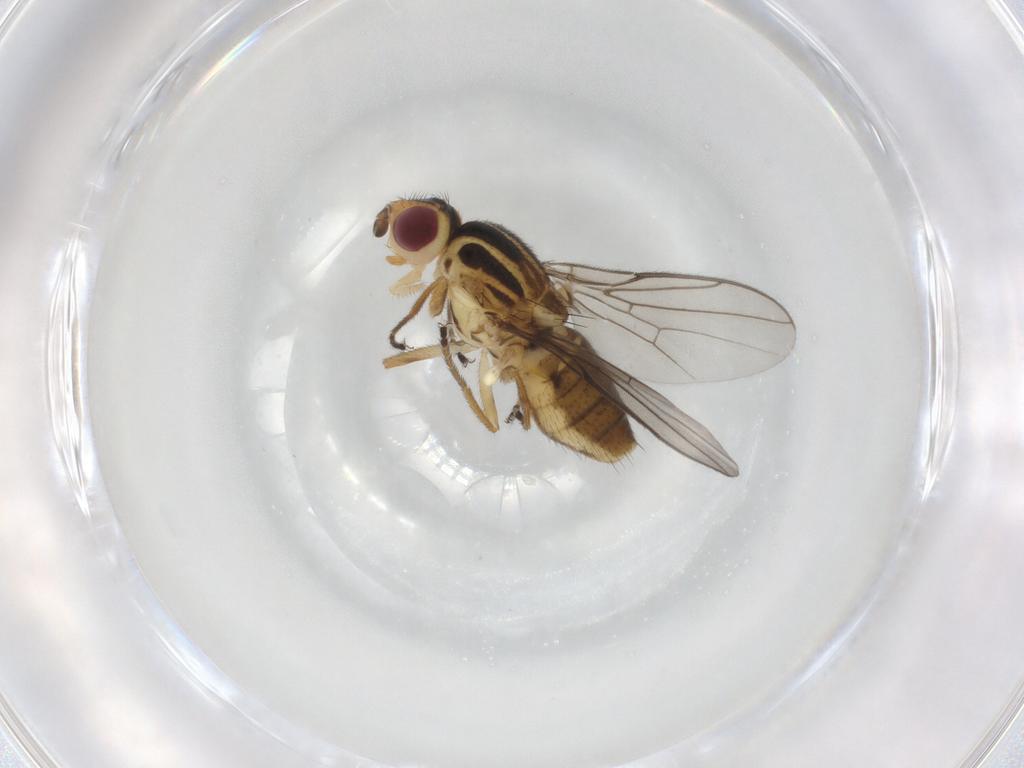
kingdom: Animalia
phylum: Arthropoda
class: Insecta
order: Diptera
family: Chloropidae
